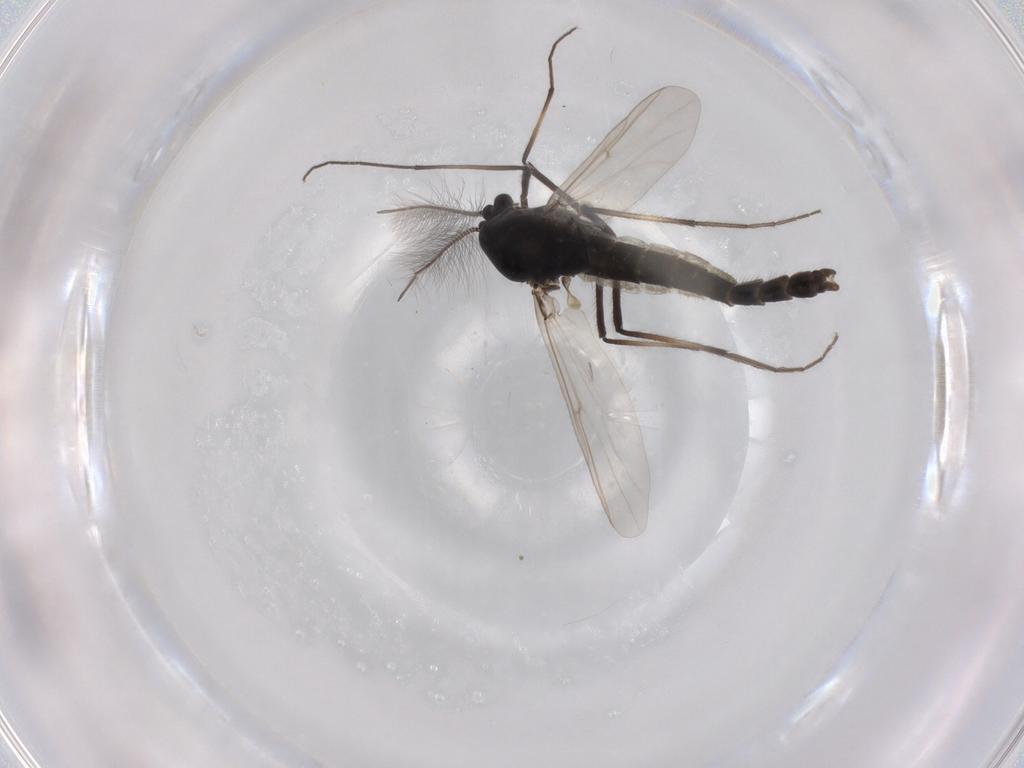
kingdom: Animalia
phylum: Arthropoda
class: Insecta
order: Diptera
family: Chironomidae
